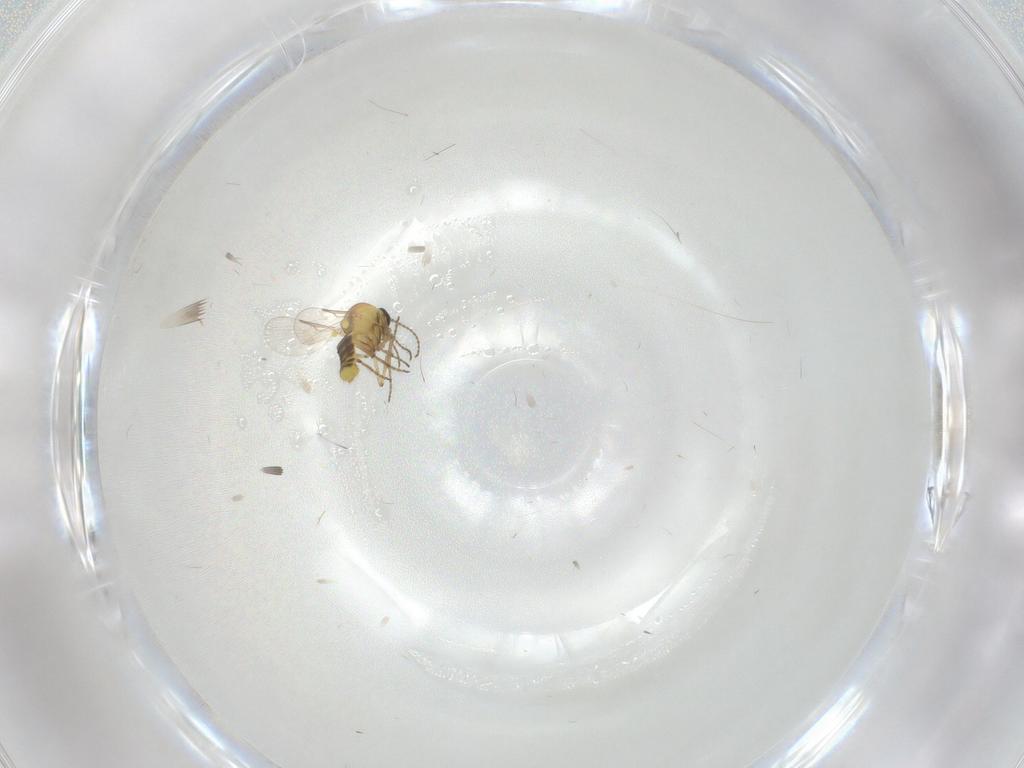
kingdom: Animalia
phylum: Arthropoda
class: Insecta
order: Diptera
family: Ceratopogonidae
